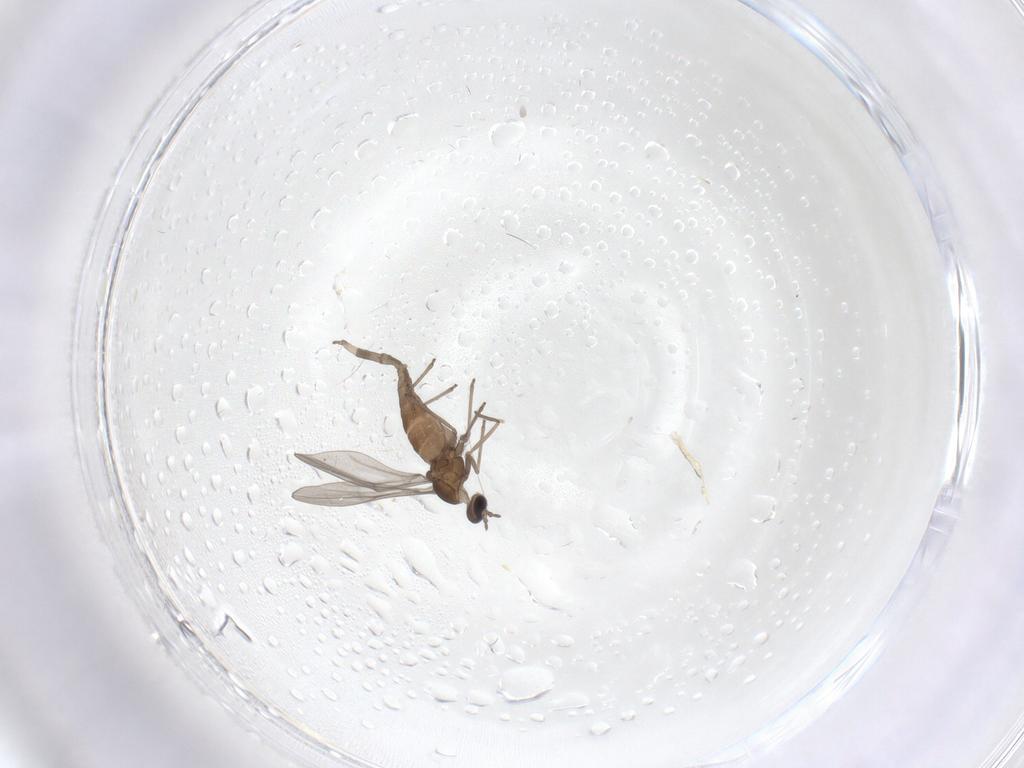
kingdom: Animalia
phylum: Arthropoda
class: Insecta
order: Diptera
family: Cecidomyiidae
